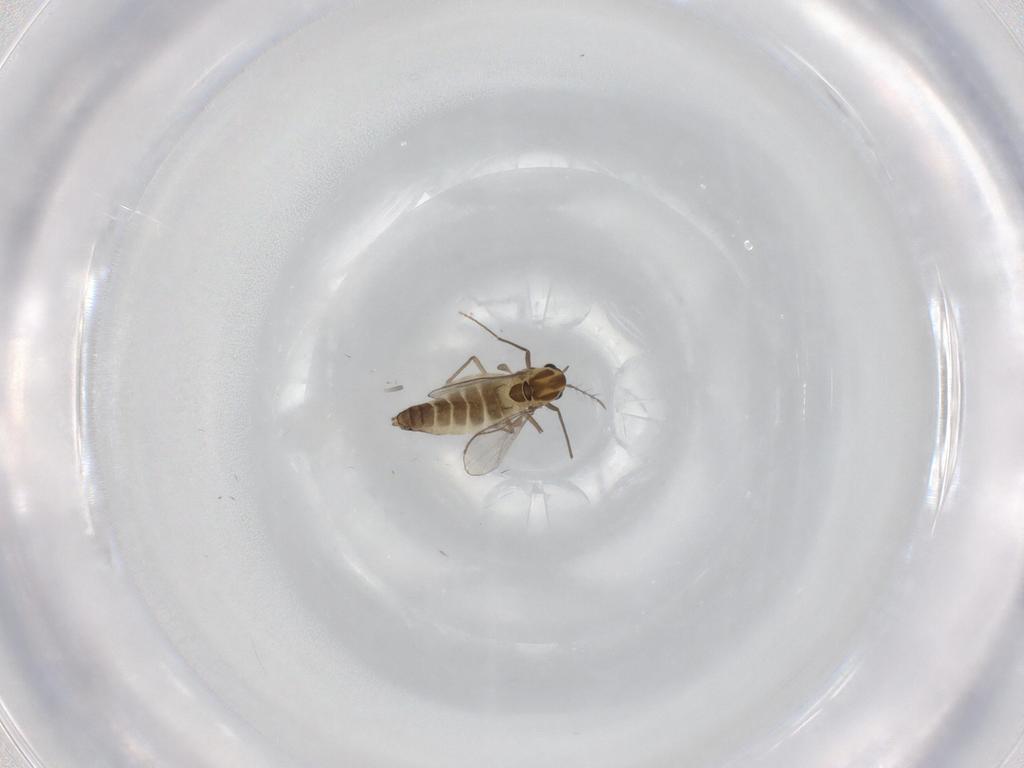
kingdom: Animalia
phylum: Arthropoda
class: Insecta
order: Diptera
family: Chironomidae
